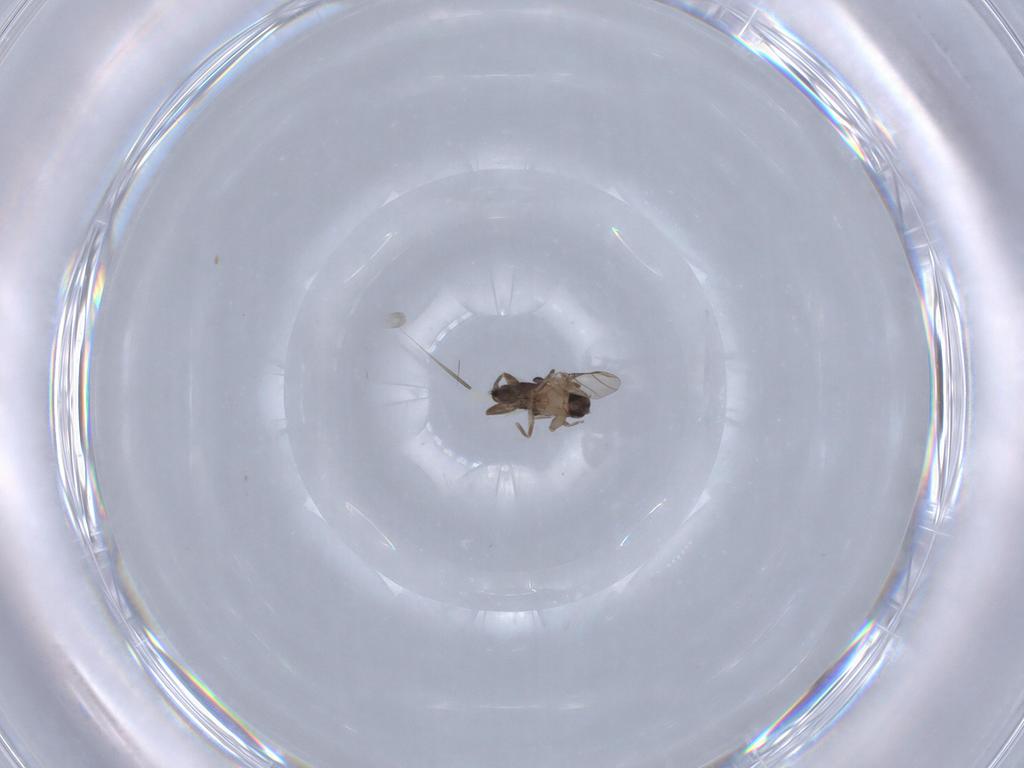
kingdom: Animalia
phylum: Arthropoda
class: Insecta
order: Diptera
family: Sphaeroceridae
